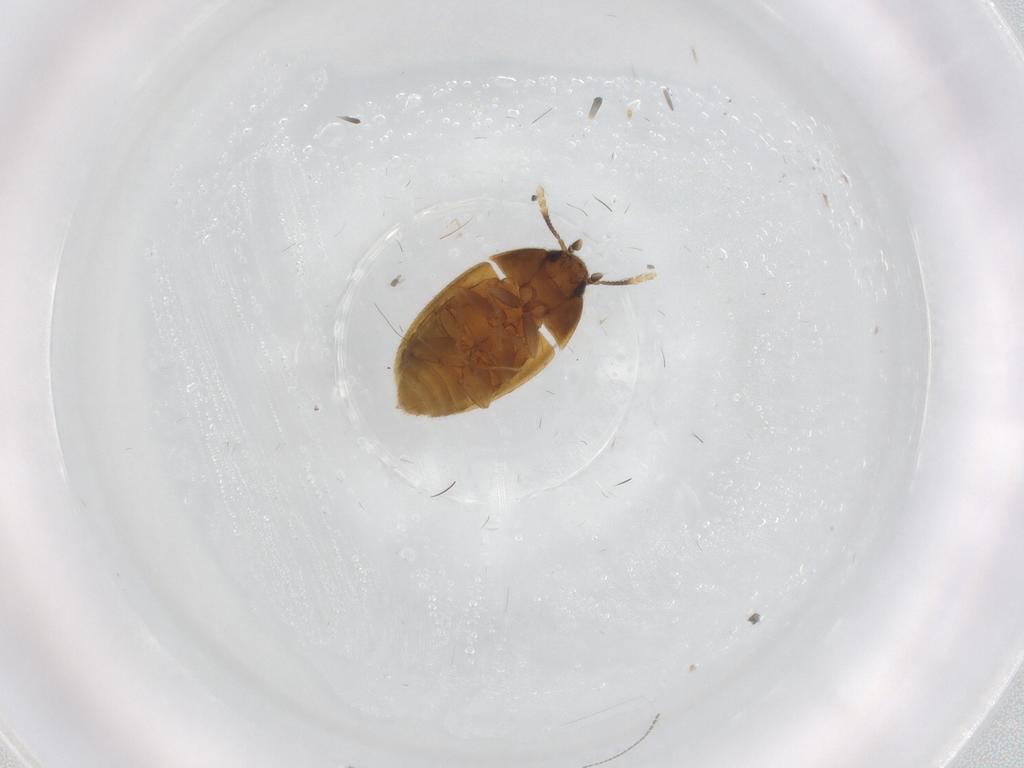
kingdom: Animalia
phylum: Arthropoda
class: Insecta
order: Coleoptera
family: Mycetophagidae
